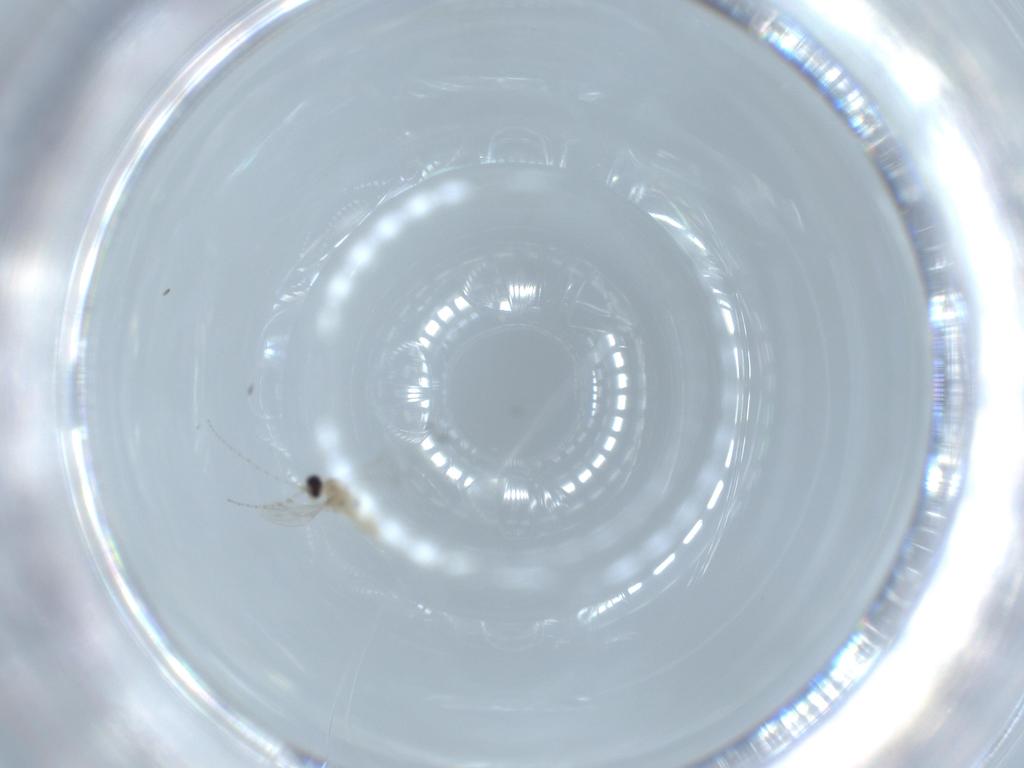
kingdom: Animalia
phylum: Arthropoda
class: Insecta
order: Diptera
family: Cecidomyiidae
